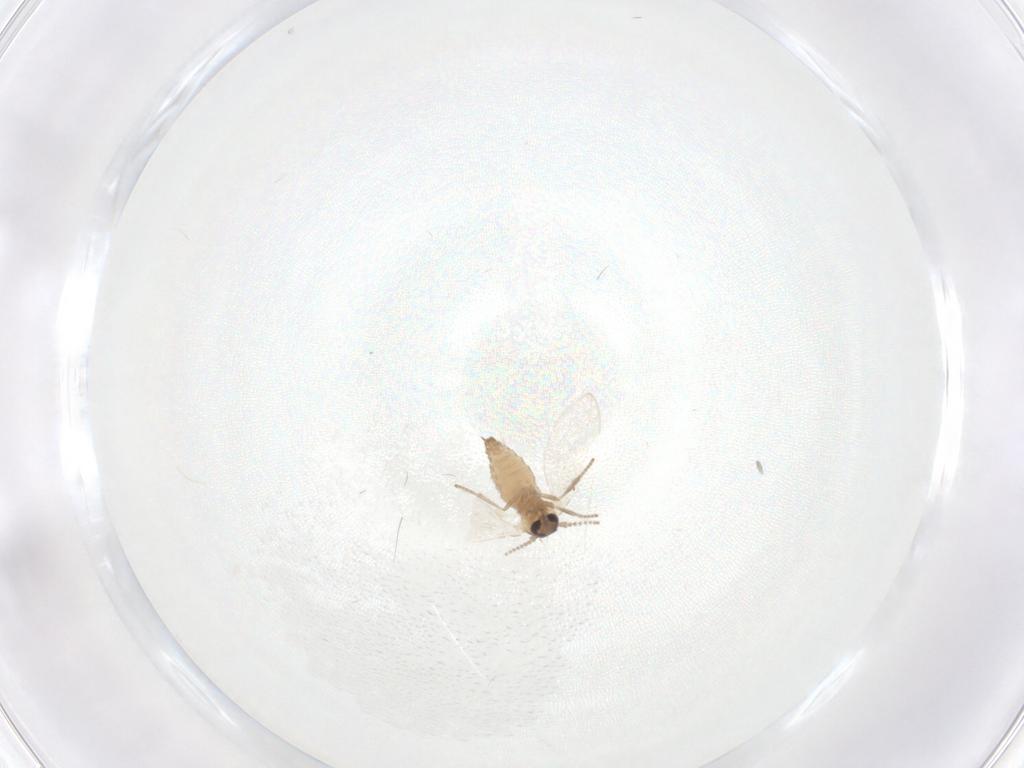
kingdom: Animalia
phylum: Arthropoda
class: Insecta
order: Diptera
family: Psychodidae
